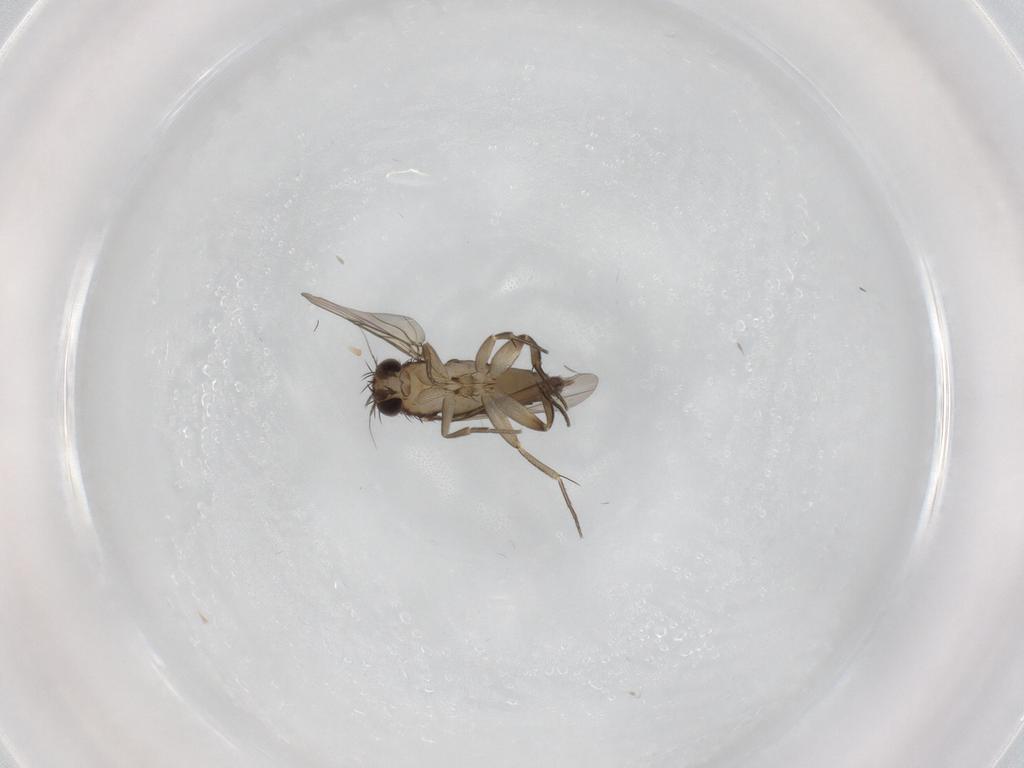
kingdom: Animalia
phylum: Arthropoda
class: Insecta
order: Diptera
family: Phoridae
